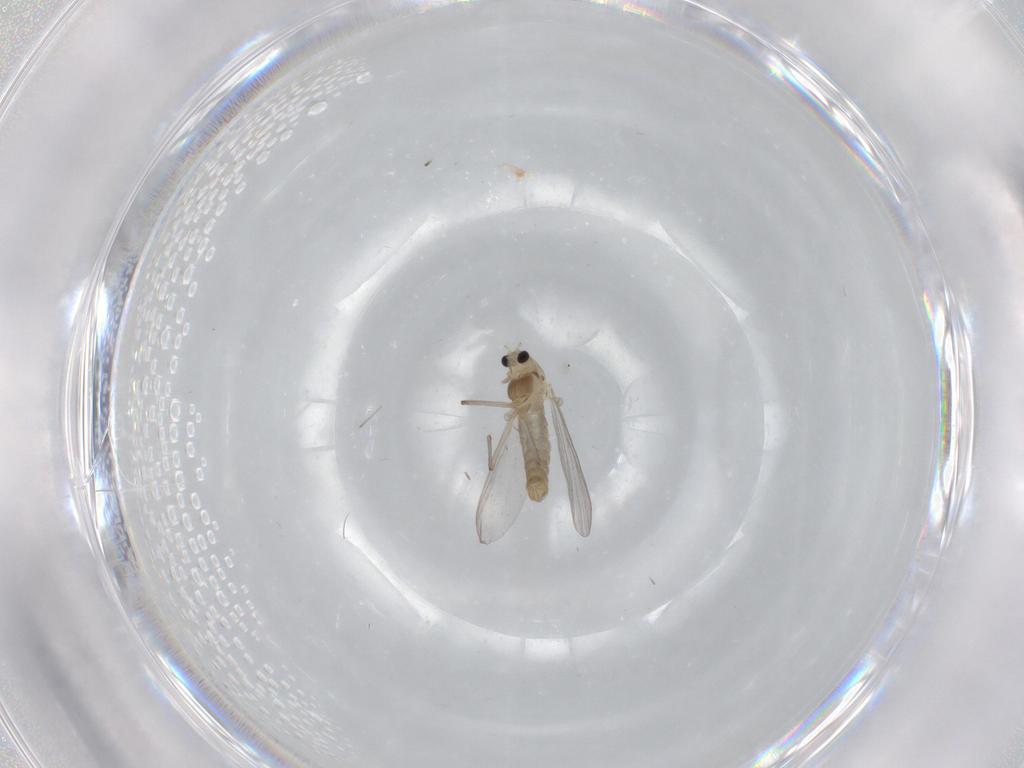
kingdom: Animalia
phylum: Arthropoda
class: Insecta
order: Diptera
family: Chironomidae
